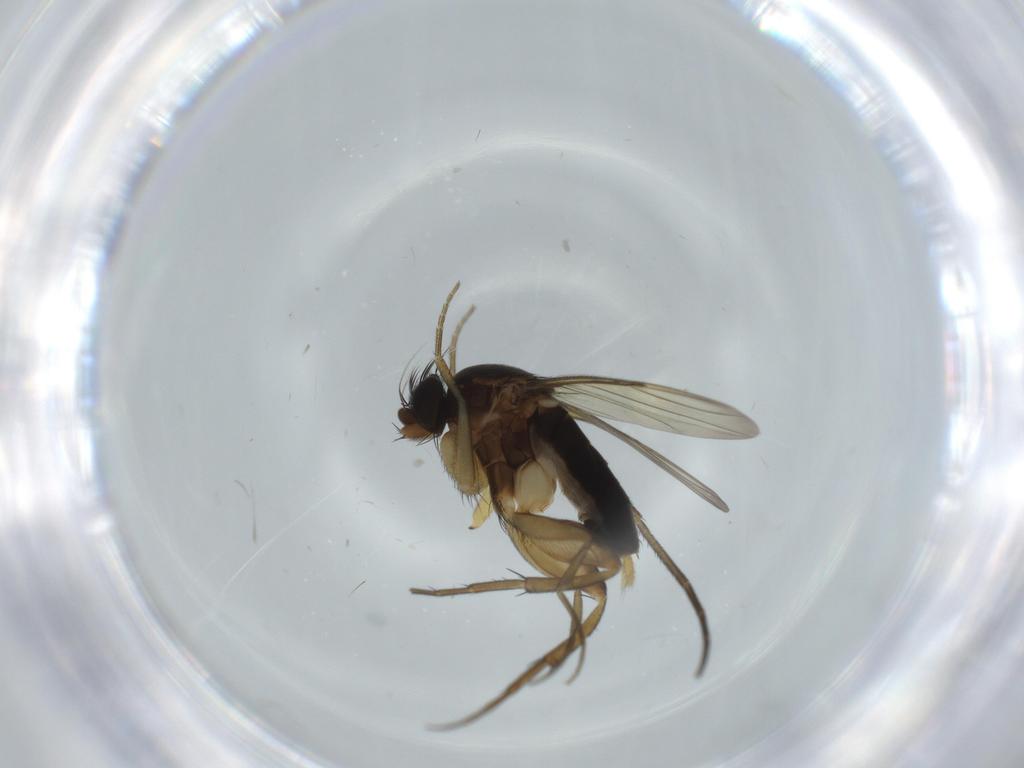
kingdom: Animalia
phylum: Arthropoda
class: Insecta
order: Diptera
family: Phoridae
